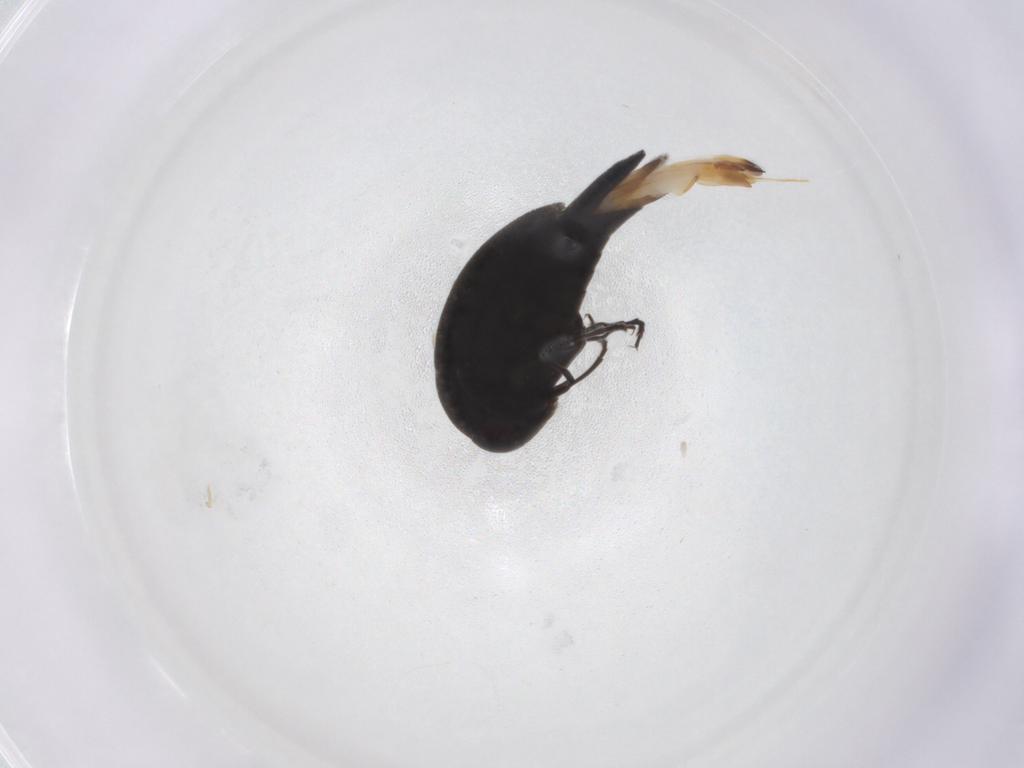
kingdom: Animalia
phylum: Arthropoda
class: Insecta
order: Coleoptera
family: Mordellidae
